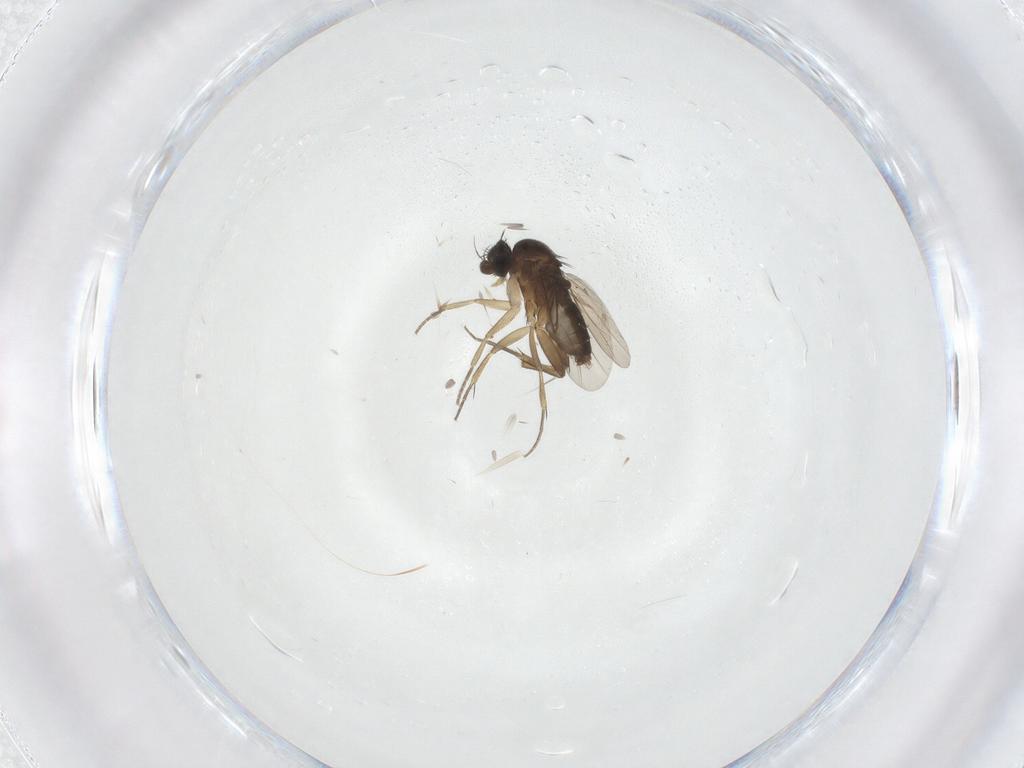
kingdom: Animalia
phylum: Arthropoda
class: Insecta
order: Diptera
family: Phoridae
